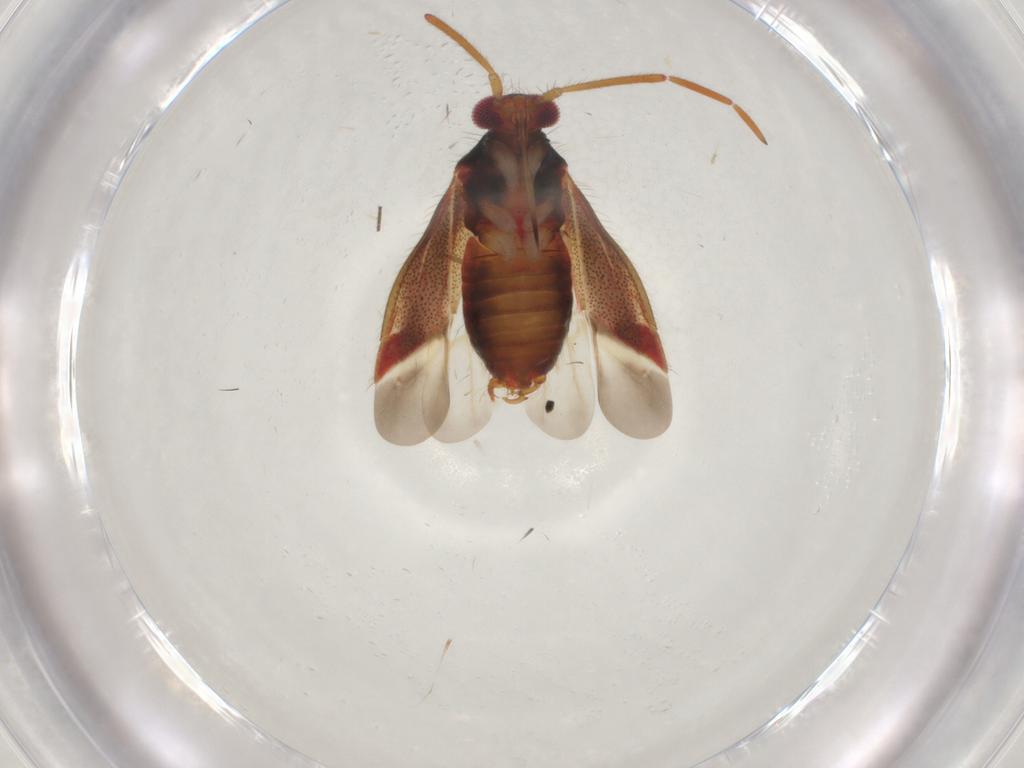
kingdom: Animalia
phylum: Arthropoda
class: Insecta
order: Hemiptera
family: Miridae
